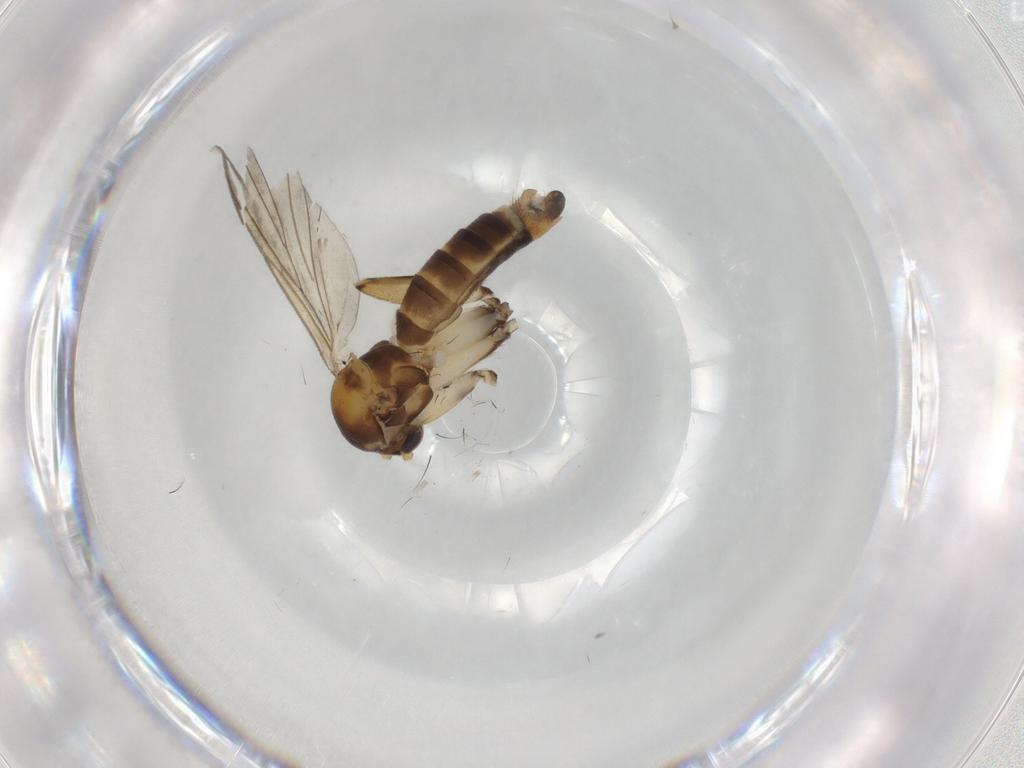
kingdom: Animalia
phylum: Arthropoda
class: Insecta
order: Diptera
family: Mycetophilidae
